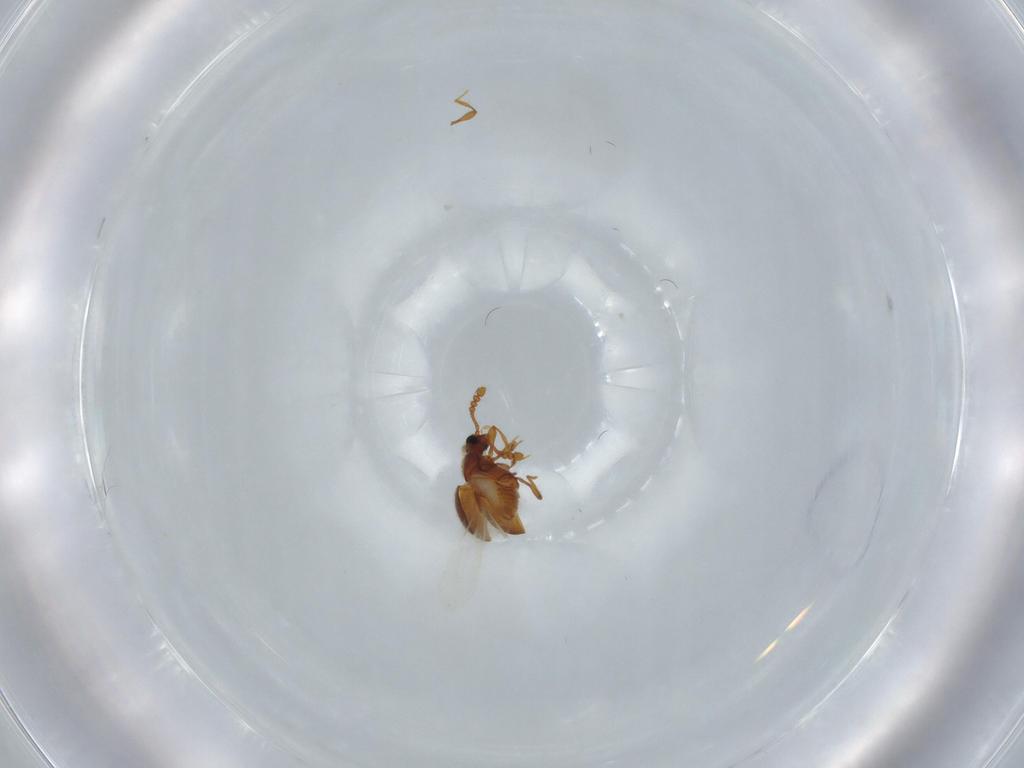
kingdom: Animalia
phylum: Arthropoda
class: Insecta
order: Coleoptera
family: Staphylinidae
